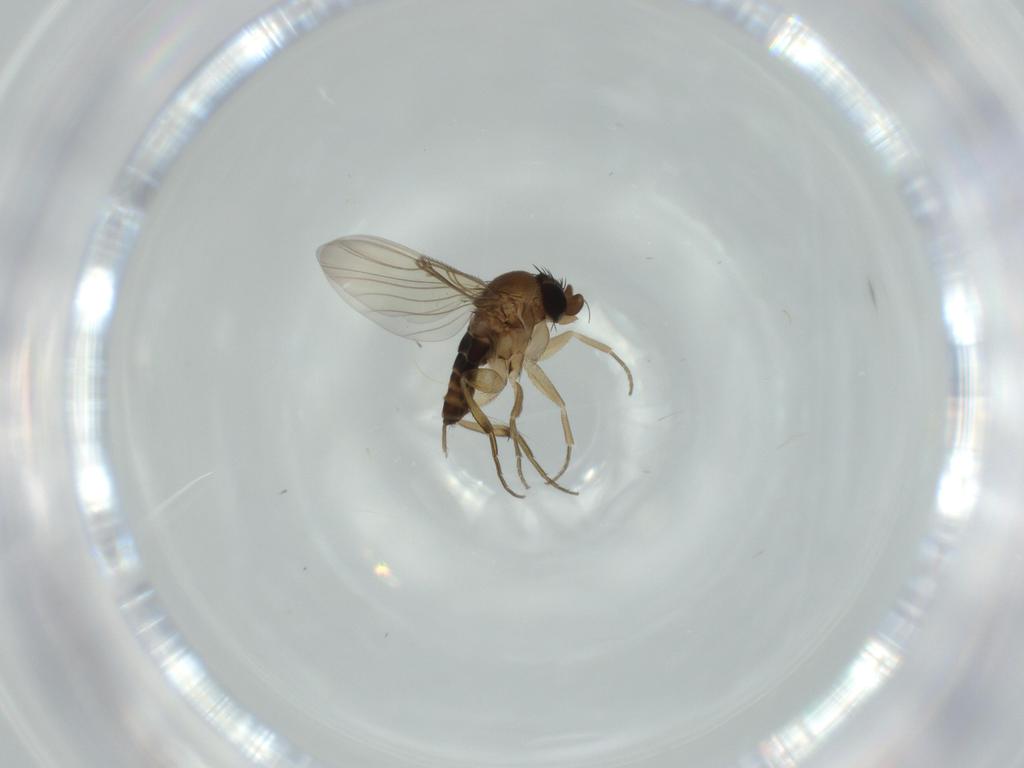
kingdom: Animalia
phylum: Arthropoda
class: Insecta
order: Diptera
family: Phoridae
